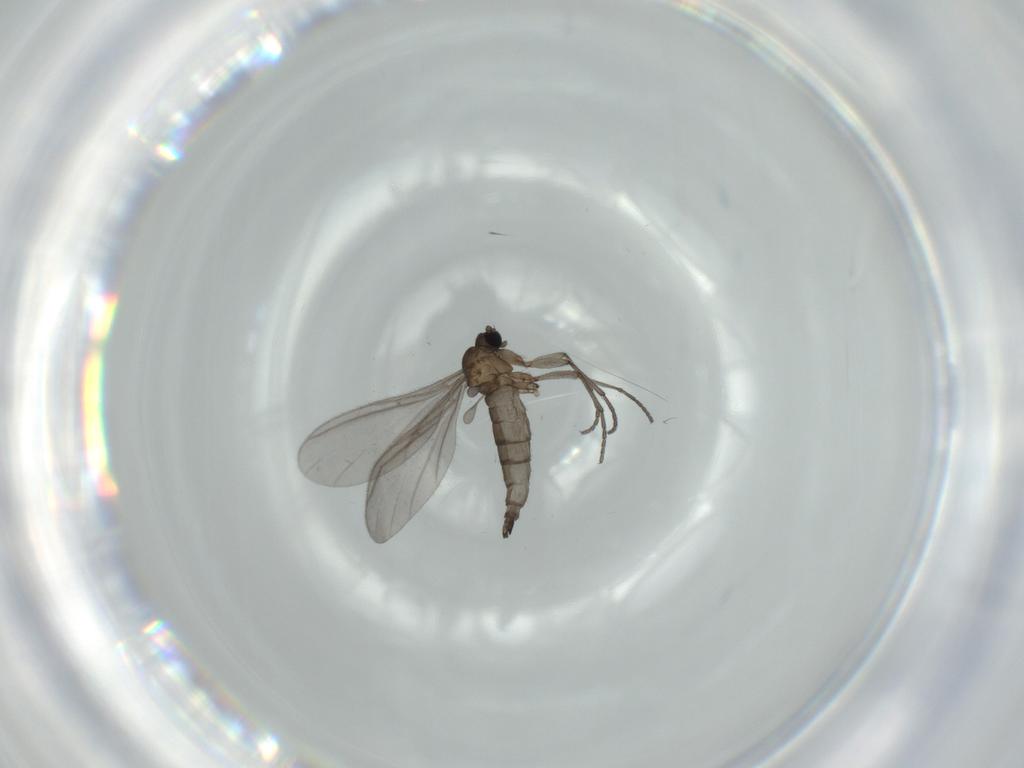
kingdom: Animalia
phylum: Arthropoda
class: Insecta
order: Diptera
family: Sciaridae
